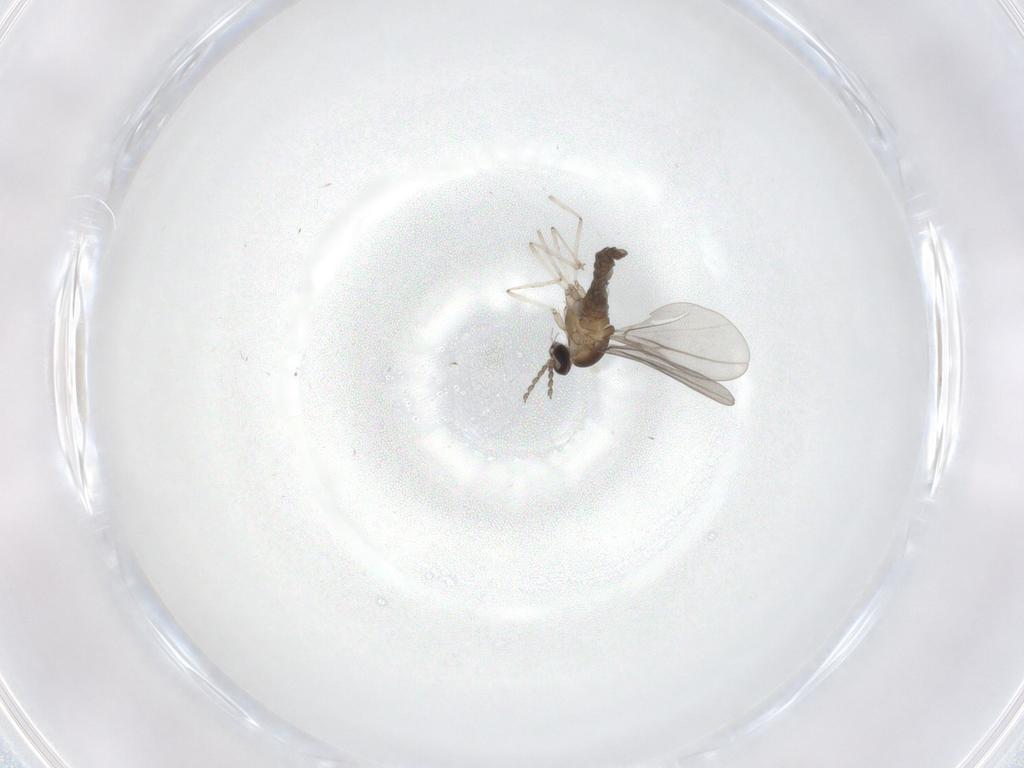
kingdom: Animalia
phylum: Arthropoda
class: Insecta
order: Diptera
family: Cecidomyiidae
